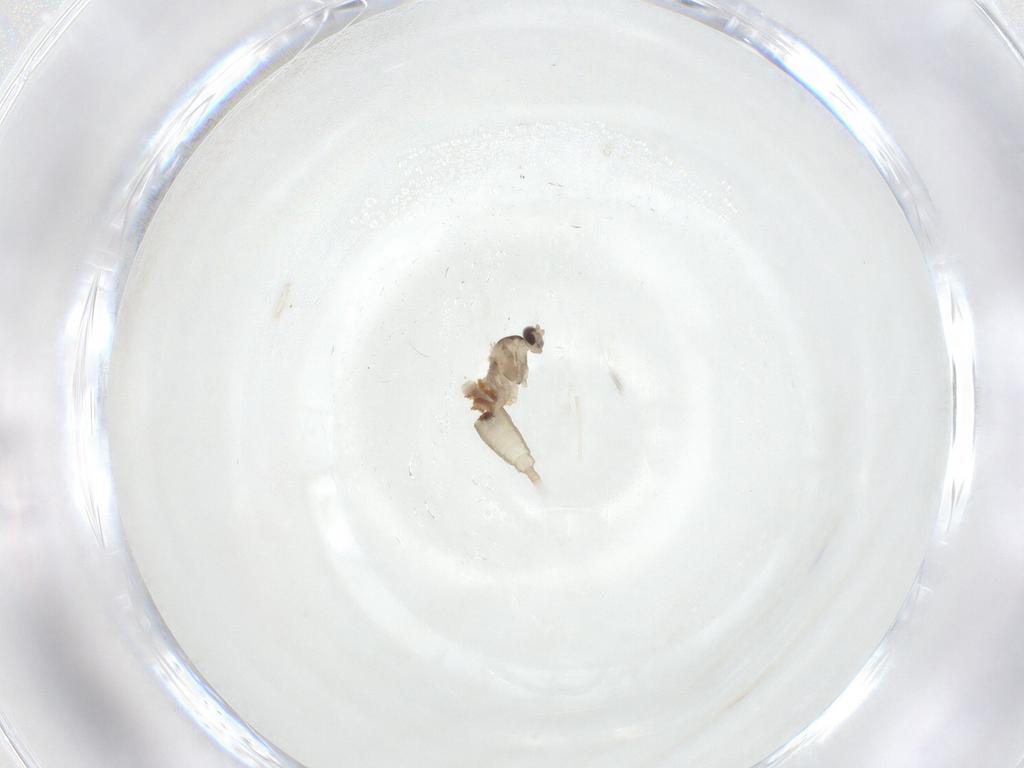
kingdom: Animalia
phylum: Arthropoda
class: Insecta
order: Diptera
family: Cecidomyiidae
